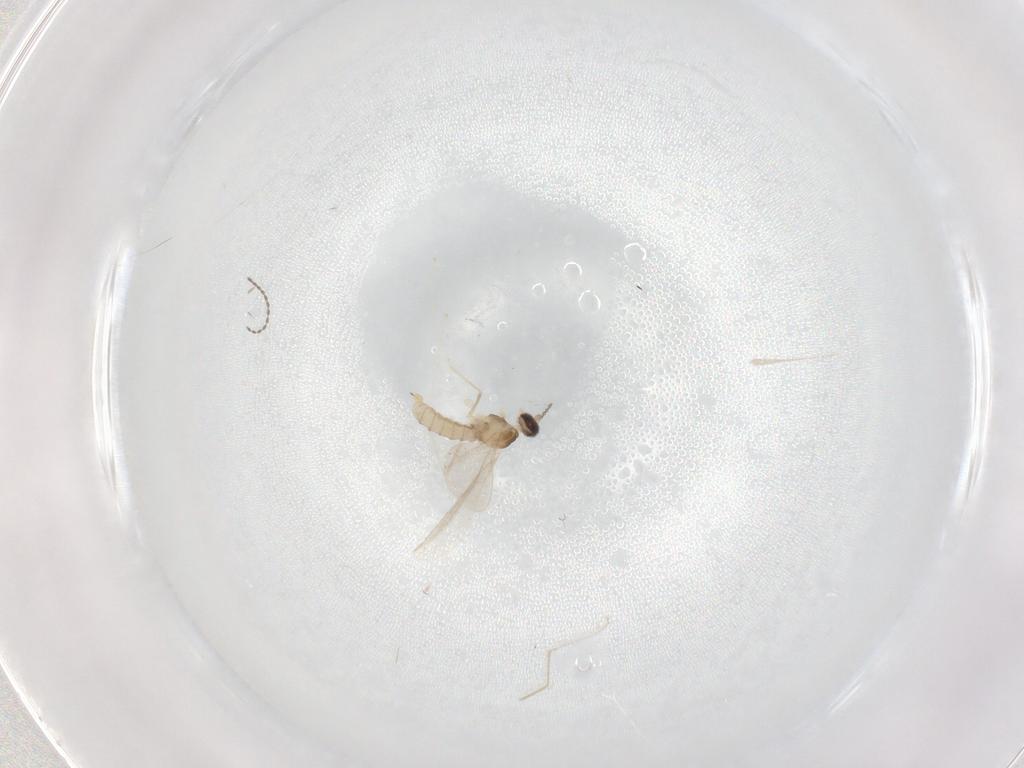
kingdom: Animalia
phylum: Arthropoda
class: Insecta
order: Diptera
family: Cecidomyiidae
